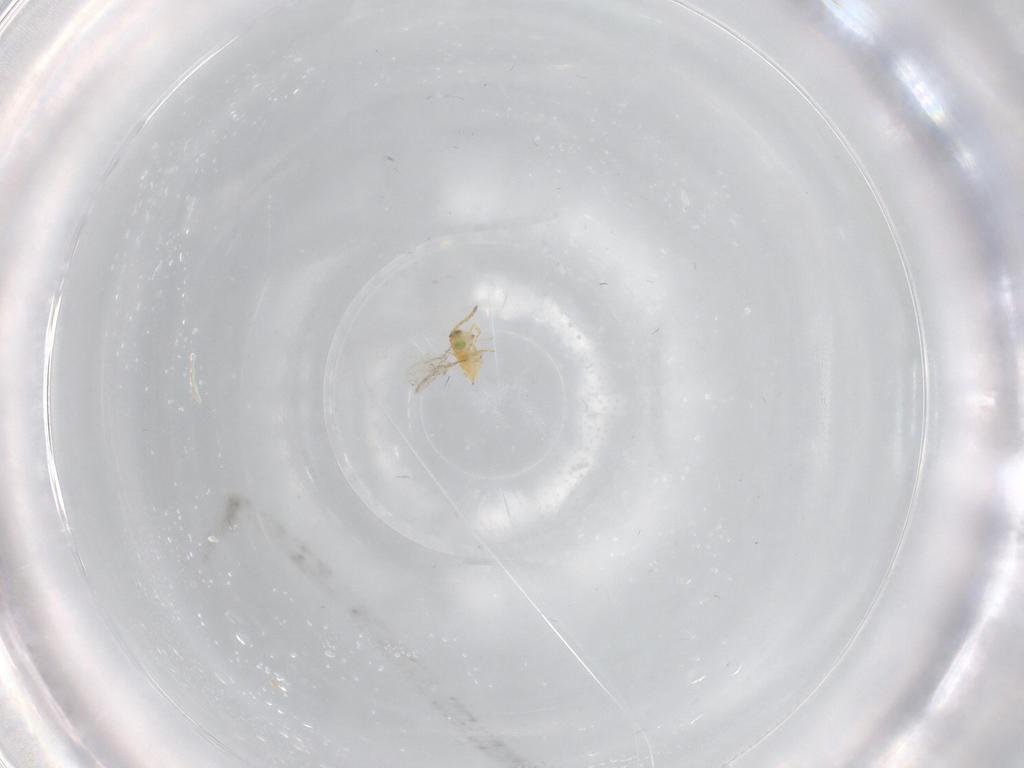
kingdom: Animalia
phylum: Arthropoda
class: Insecta
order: Hymenoptera
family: Aphelinidae
